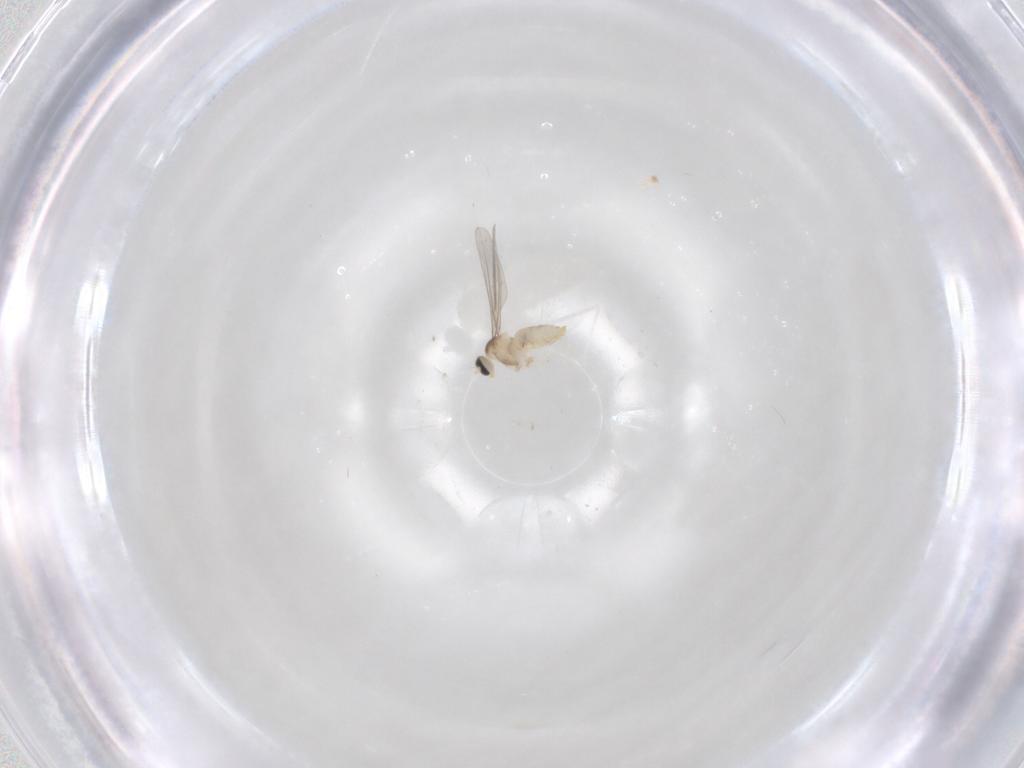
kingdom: Animalia
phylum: Arthropoda
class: Insecta
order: Diptera
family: Cecidomyiidae
